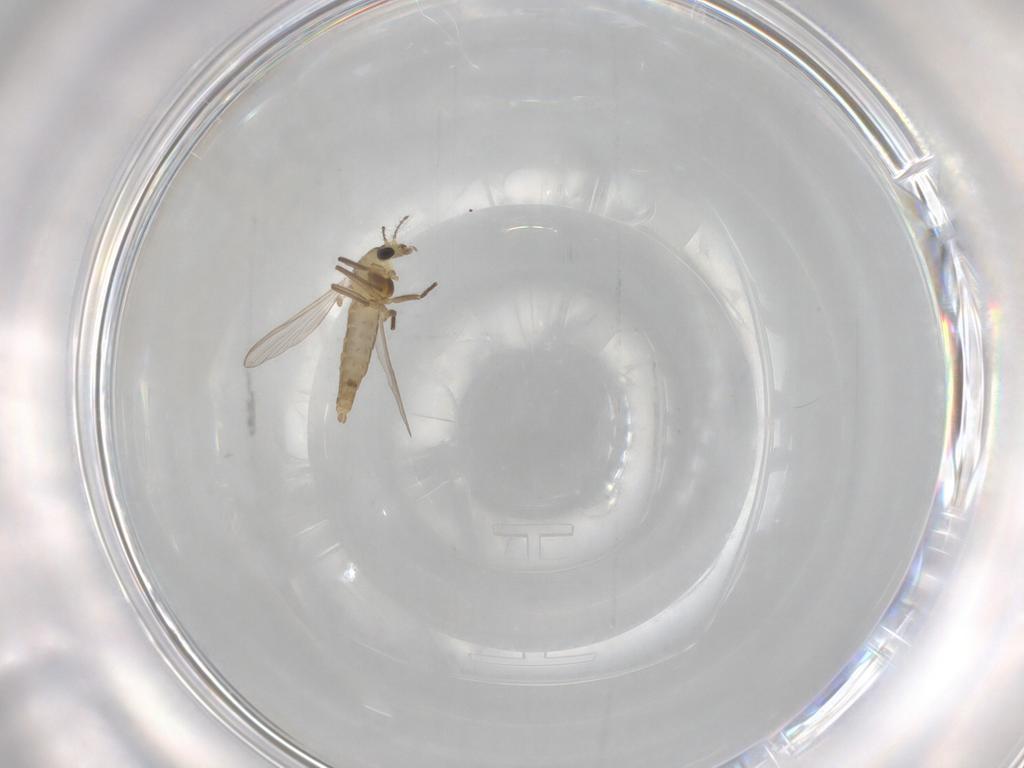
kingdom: Animalia
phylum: Arthropoda
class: Insecta
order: Diptera
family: Chironomidae
